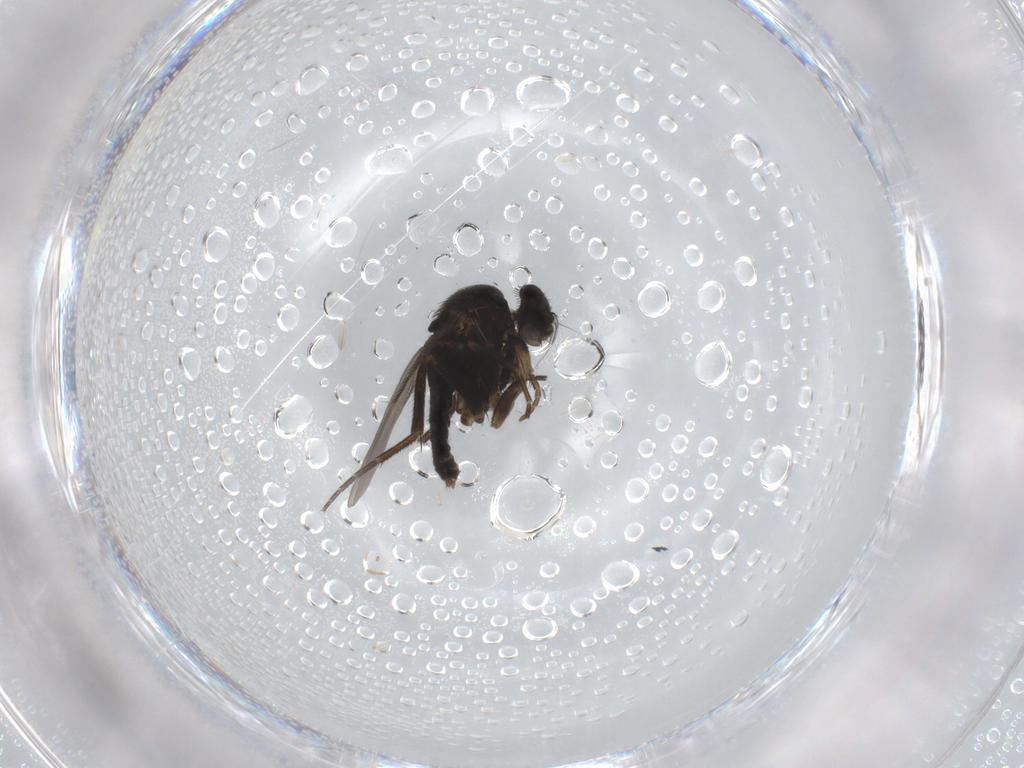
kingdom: Animalia
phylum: Arthropoda
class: Insecta
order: Diptera
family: Phoridae
